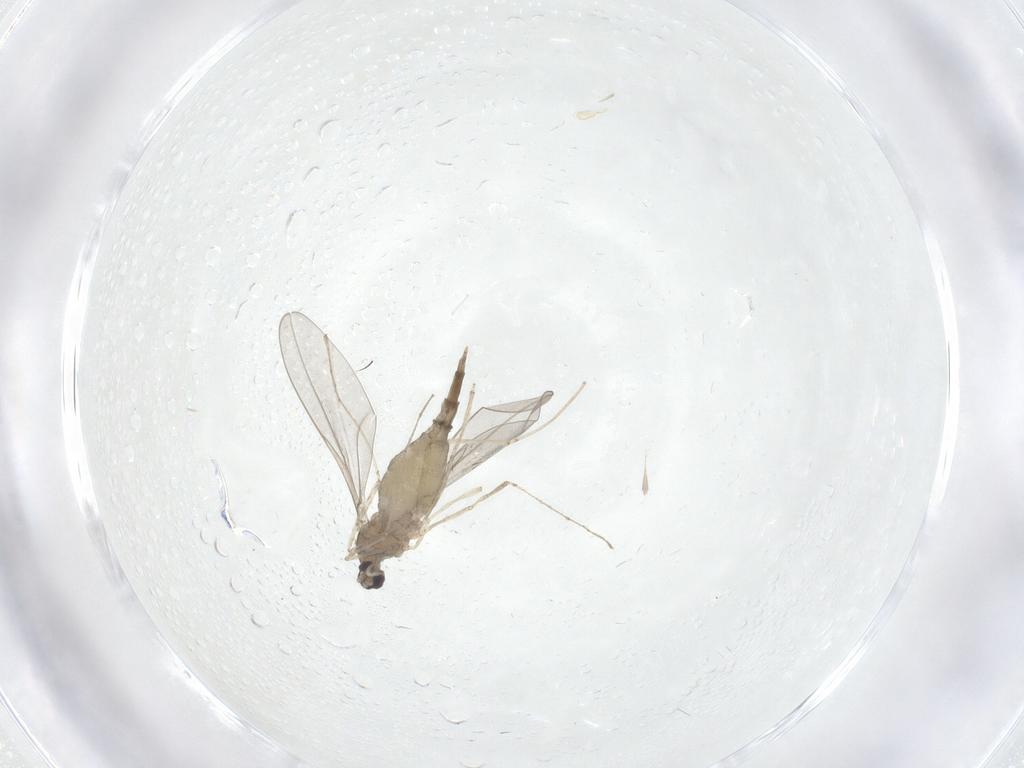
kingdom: Animalia
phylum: Arthropoda
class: Insecta
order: Diptera
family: Cecidomyiidae
